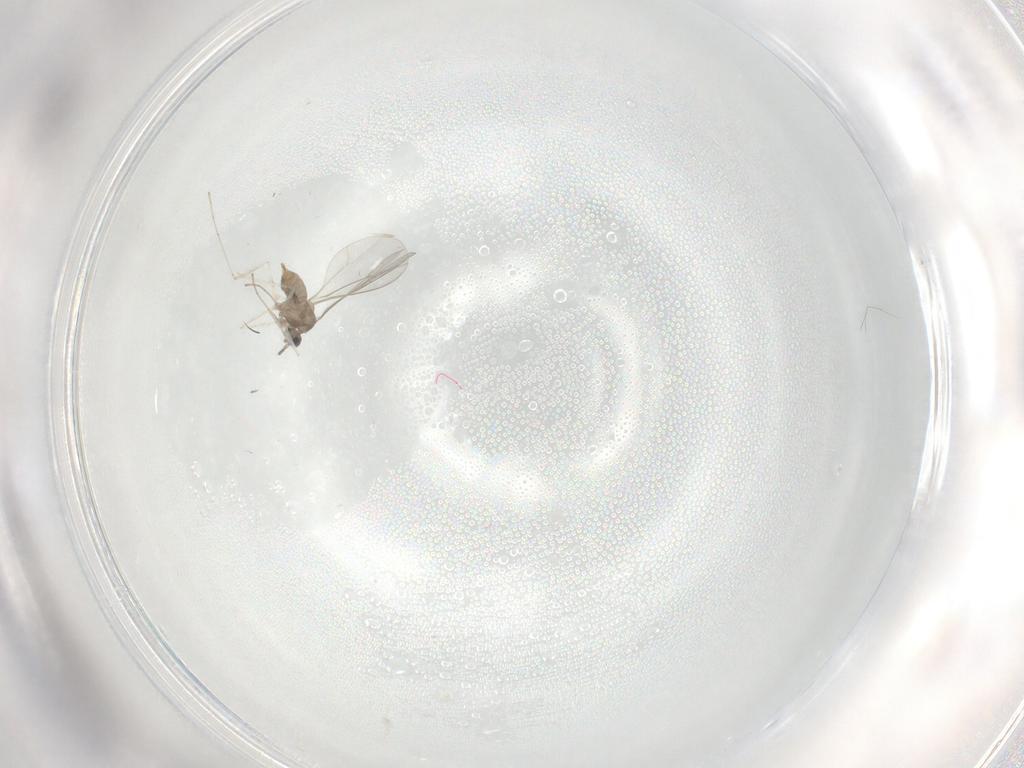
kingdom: Animalia
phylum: Arthropoda
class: Insecta
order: Diptera
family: Cecidomyiidae
